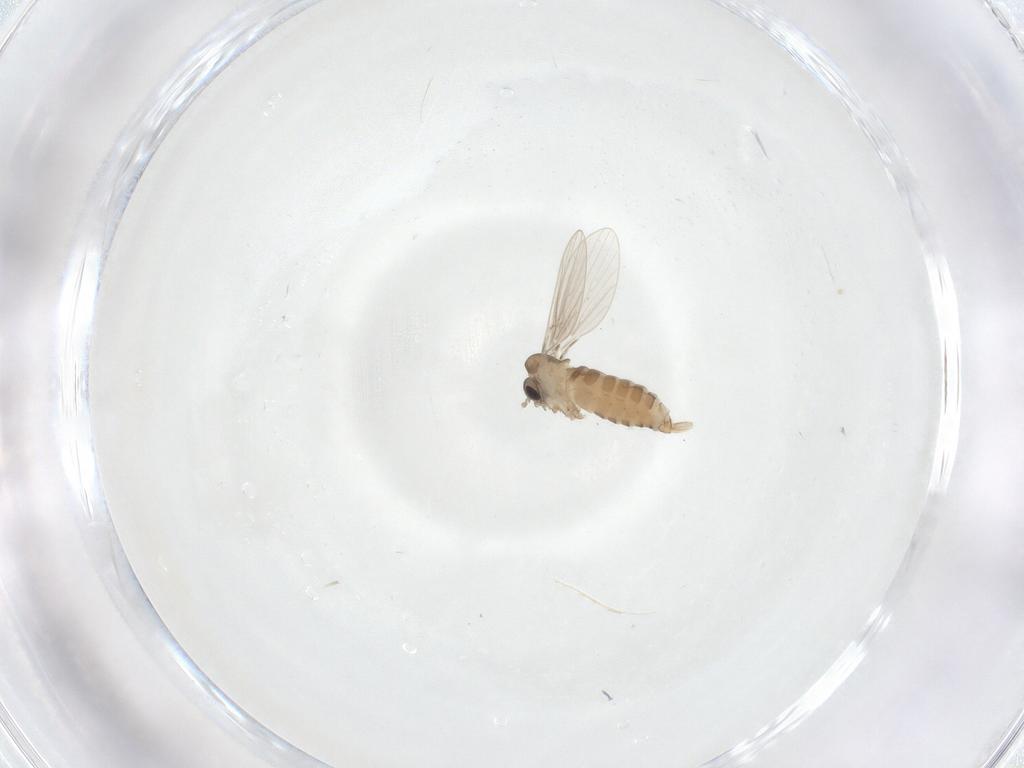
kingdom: Animalia
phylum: Arthropoda
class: Insecta
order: Diptera
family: Psychodidae
